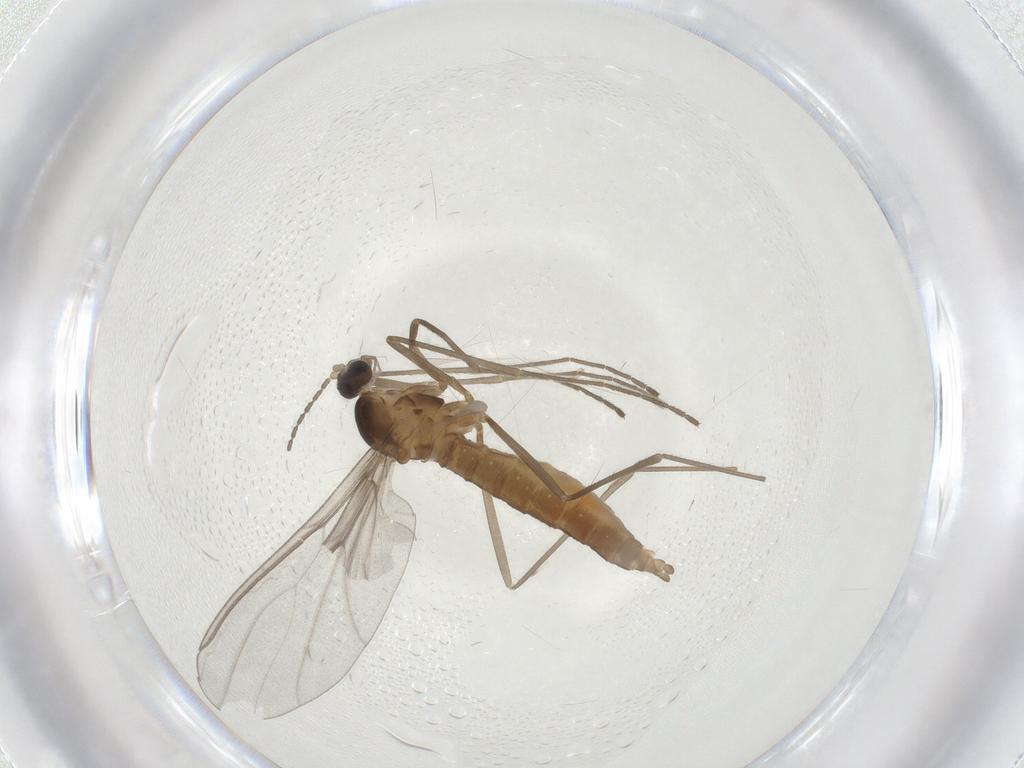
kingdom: Animalia
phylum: Arthropoda
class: Insecta
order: Diptera
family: Cecidomyiidae
